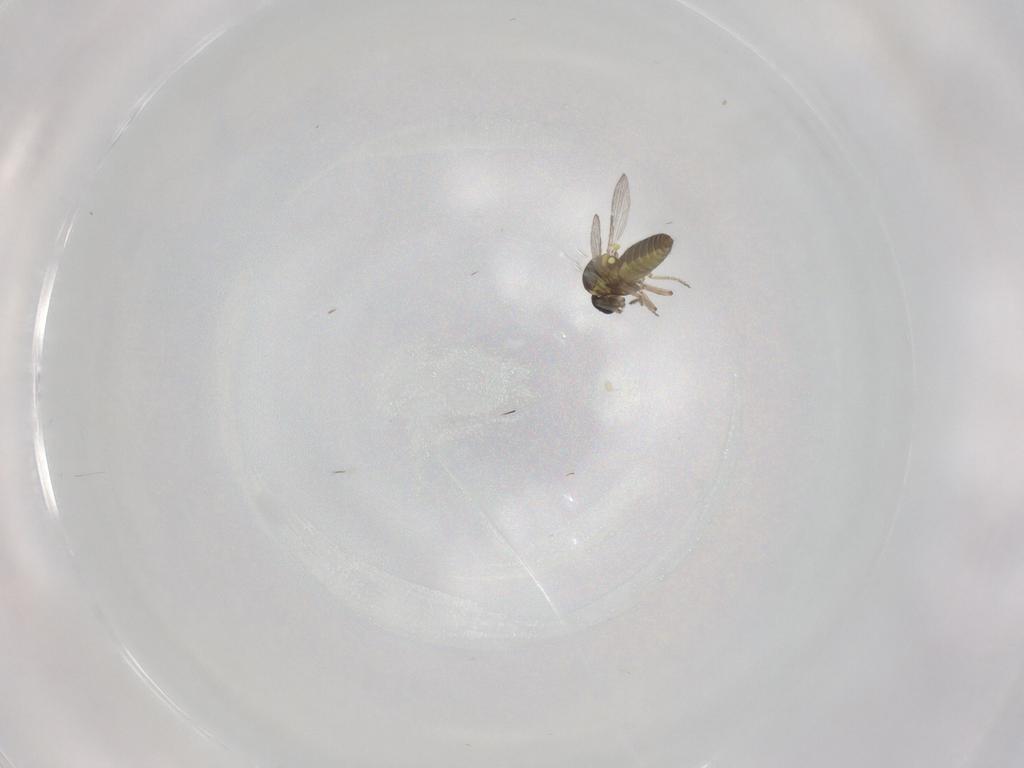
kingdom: Animalia
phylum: Arthropoda
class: Insecta
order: Diptera
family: Ceratopogonidae
